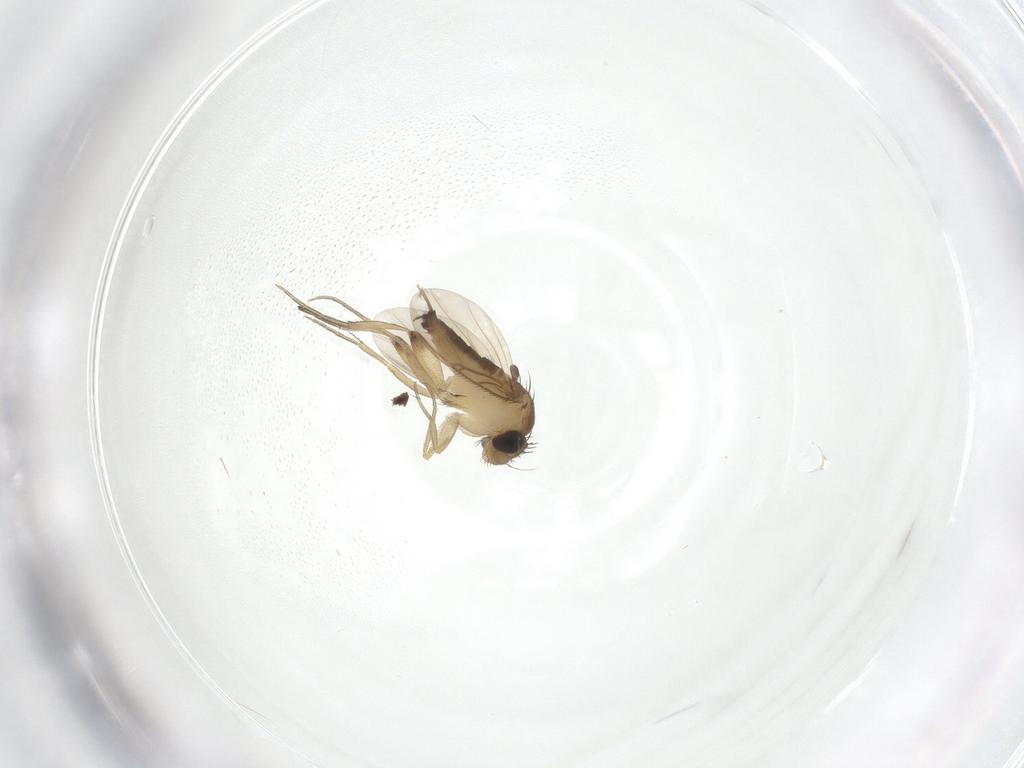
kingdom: Animalia
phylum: Arthropoda
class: Insecta
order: Diptera
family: Phoridae
